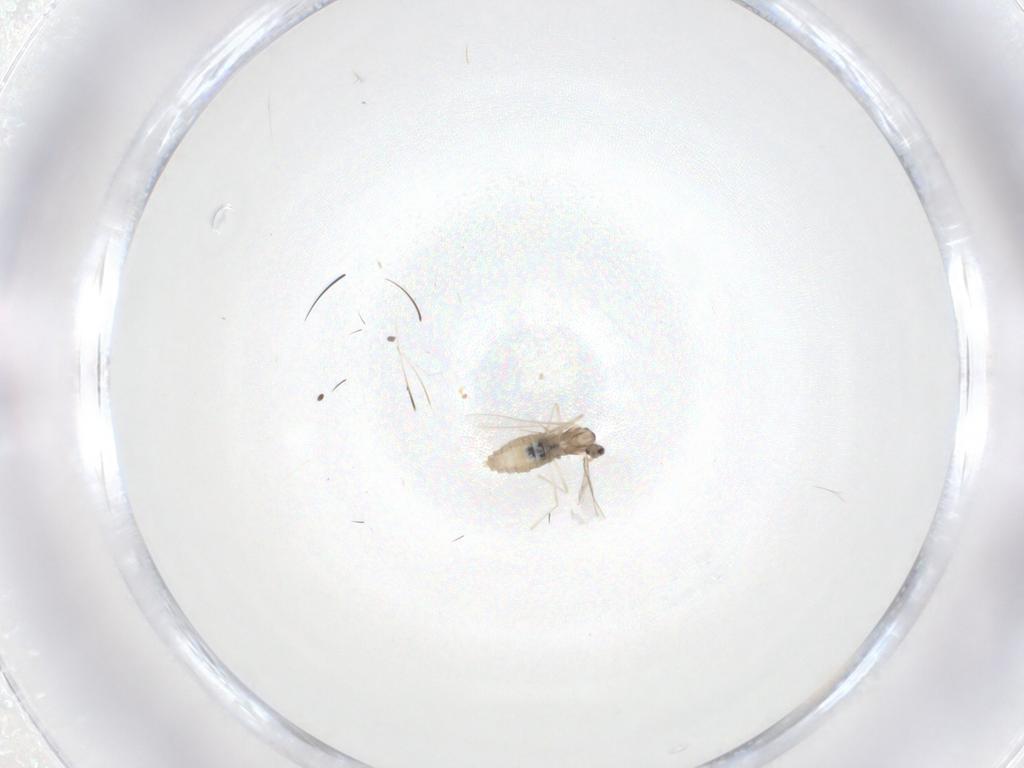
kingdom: Animalia
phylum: Arthropoda
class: Insecta
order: Diptera
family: Cecidomyiidae
